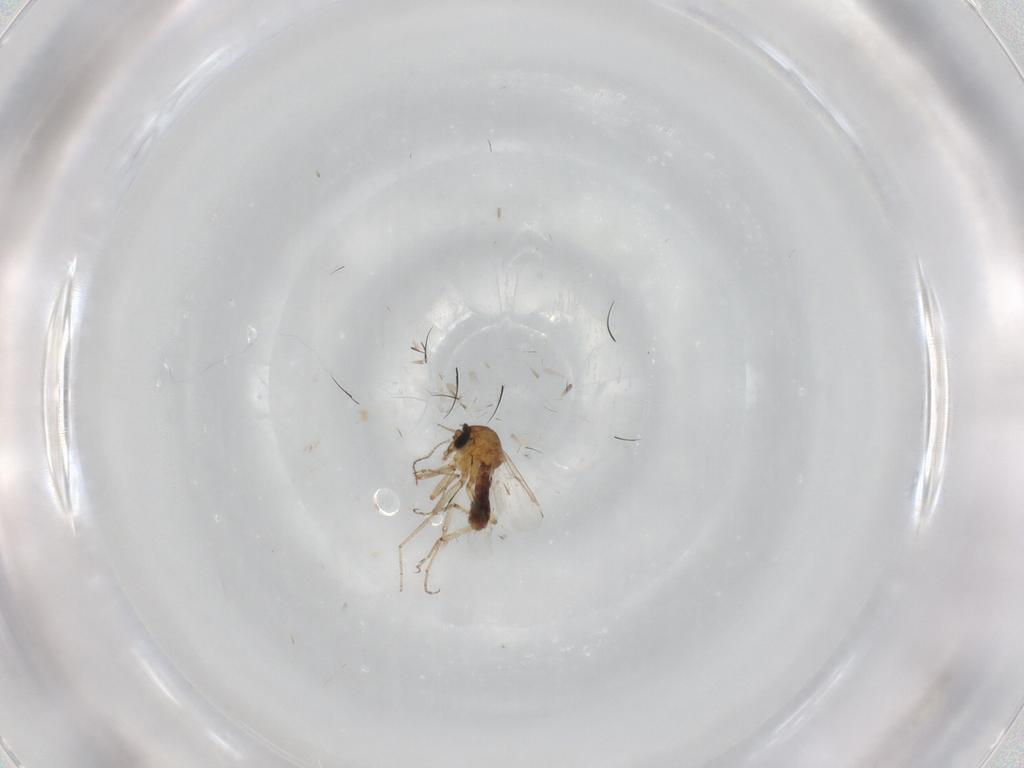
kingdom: Animalia
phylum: Arthropoda
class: Insecta
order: Diptera
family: Ceratopogonidae
